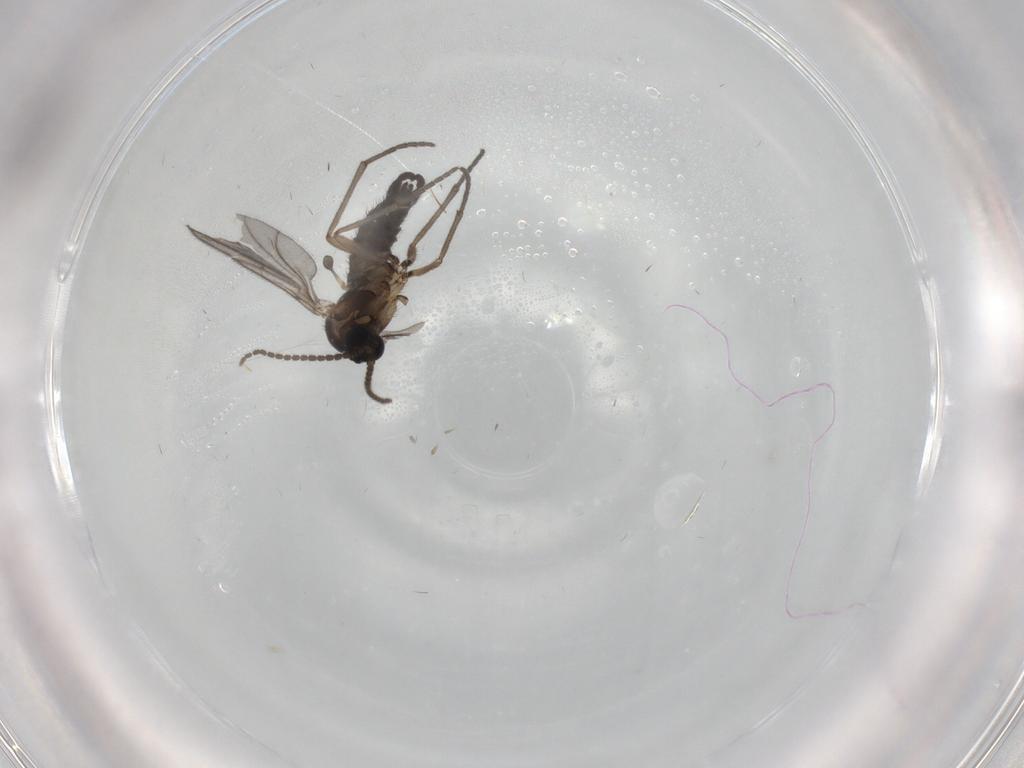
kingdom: Animalia
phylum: Arthropoda
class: Insecta
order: Diptera
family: Sciaridae
